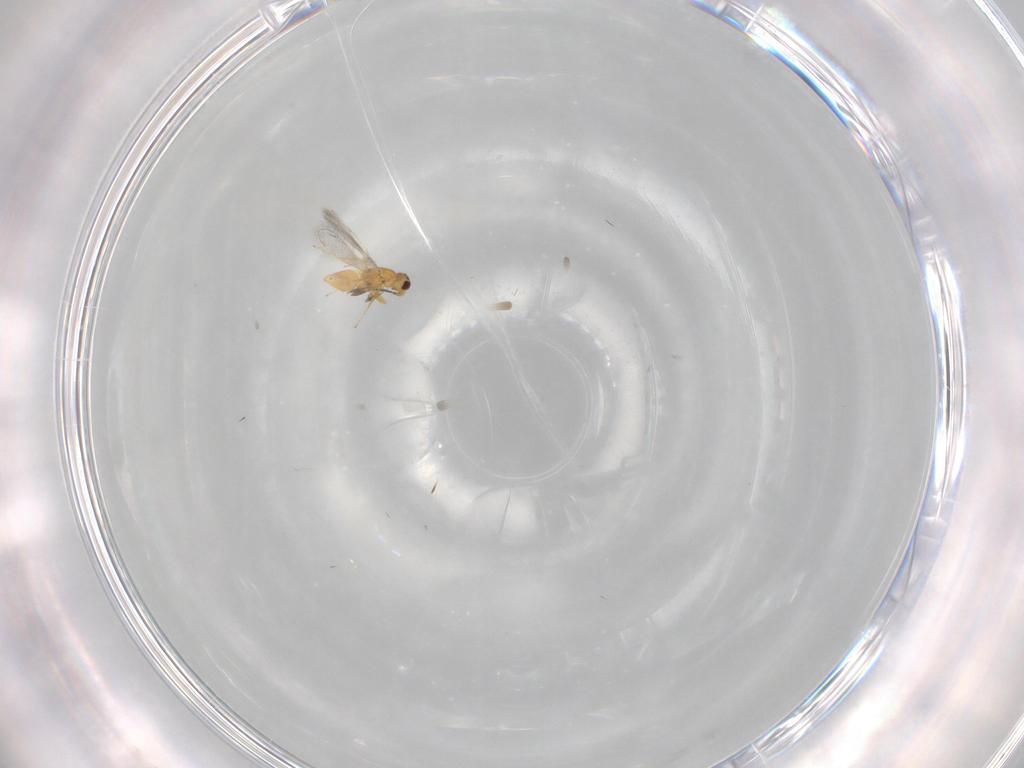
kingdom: Animalia
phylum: Arthropoda
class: Insecta
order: Hymenoptera
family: Mymaridae
